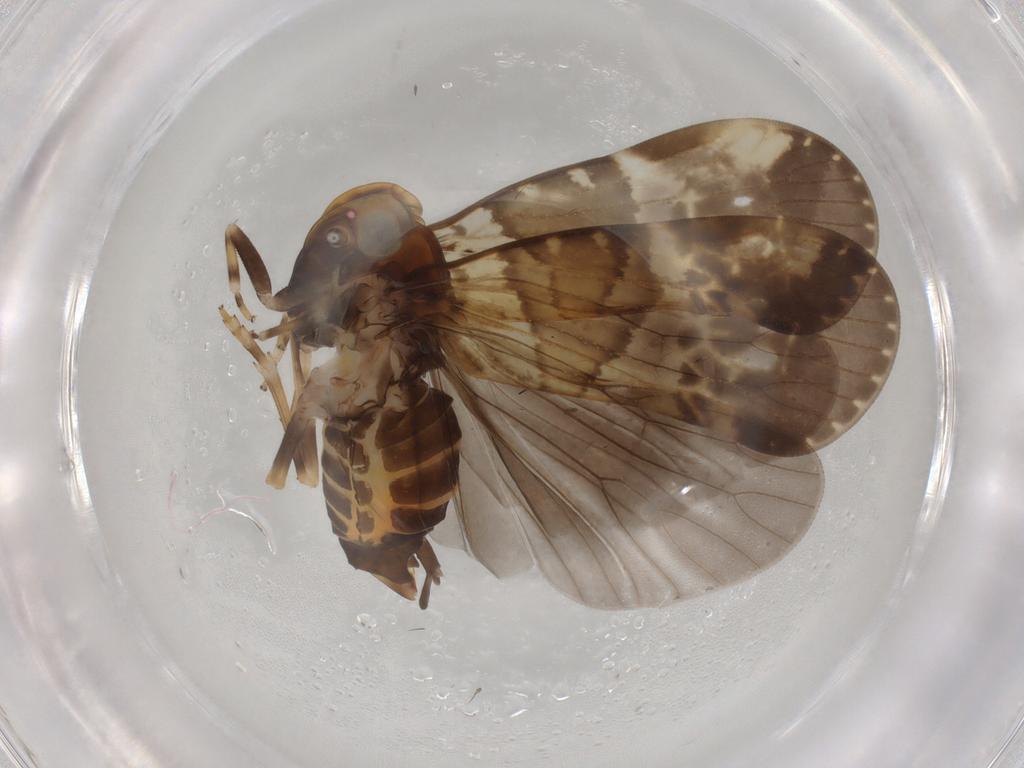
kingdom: Animalia
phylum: Arthropoda
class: Insecta
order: Hemiptera
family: Cixiidae
